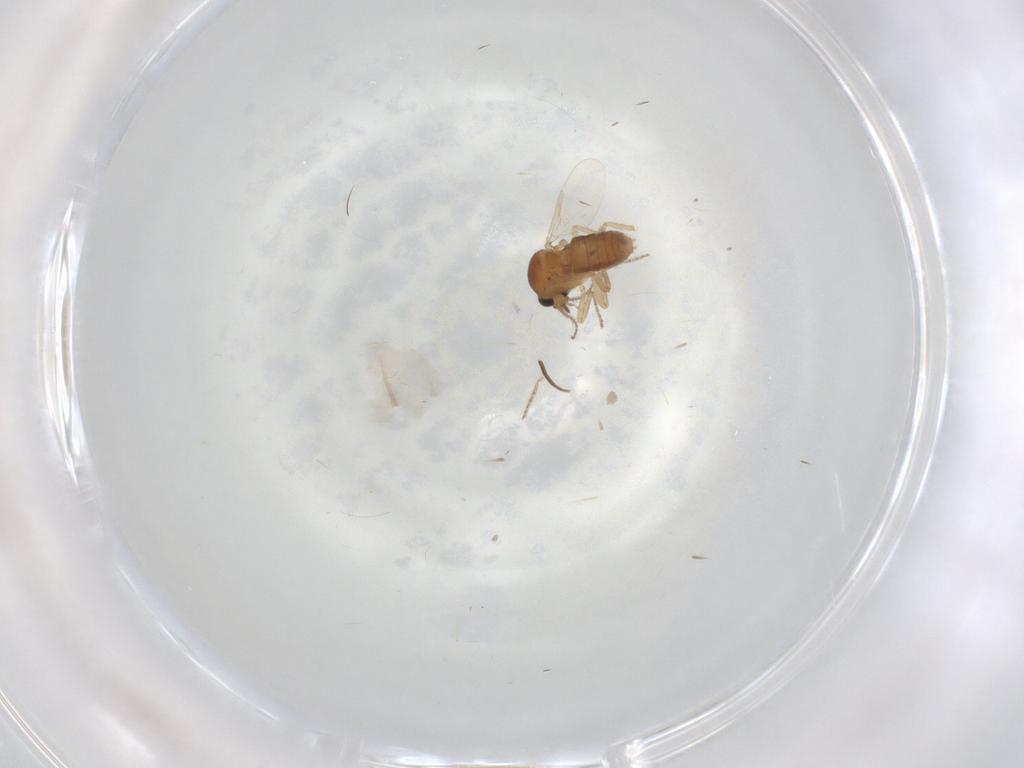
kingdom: Animalia
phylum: Arthropoda
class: Insecta
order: Diptera
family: Ceratopogonidae
